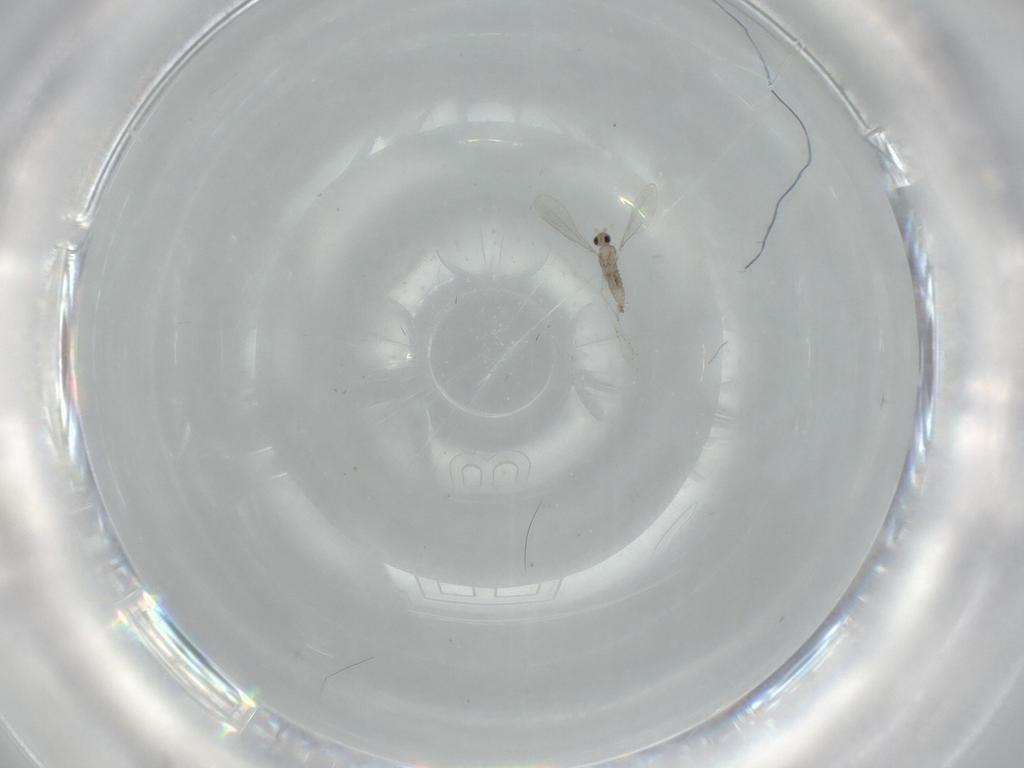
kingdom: Animalia
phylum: Arthropoda
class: Insecta
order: Diptera
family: Cecidomyiidae
